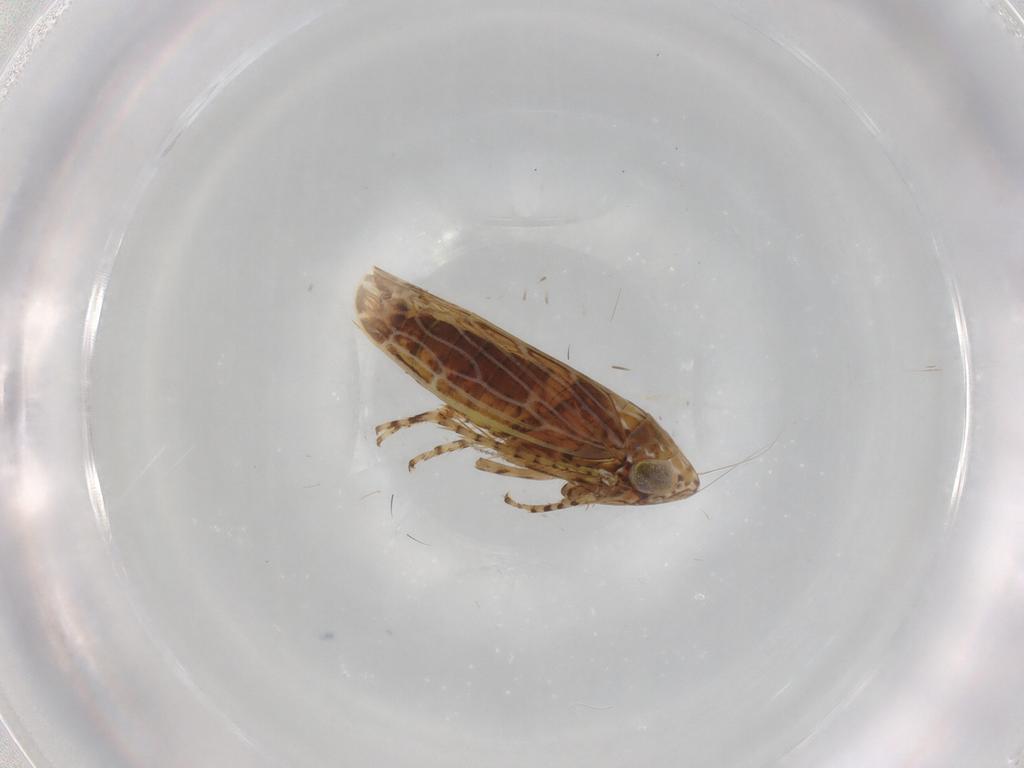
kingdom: Animalia
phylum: Arthropoda
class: Insecta
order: Hemiptera
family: Cicadellidae
